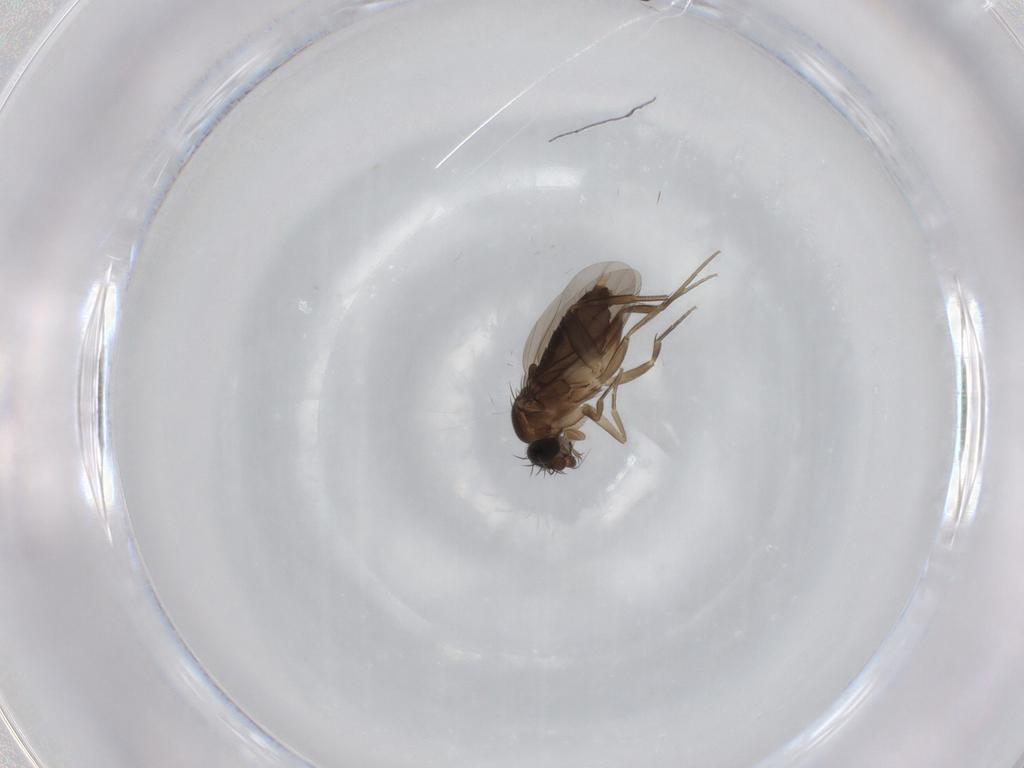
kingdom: Animalia
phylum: Arthropoda
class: Insecta
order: Diptera
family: Phoridae
